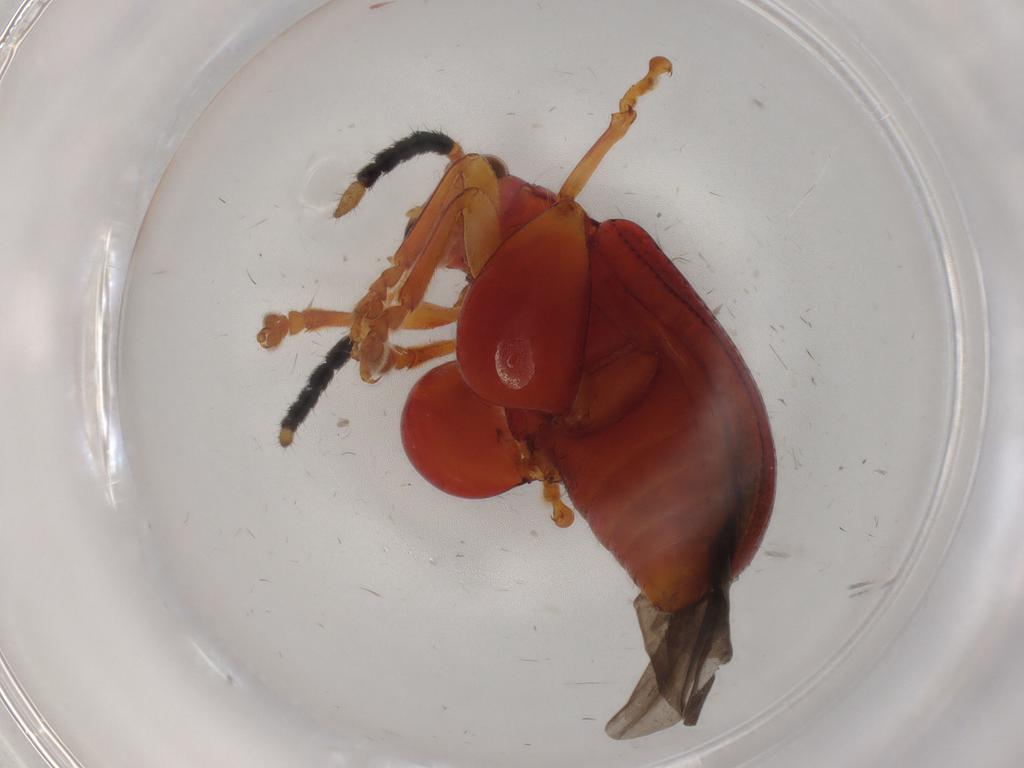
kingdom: Animalia
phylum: Arthropoda
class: Insecta
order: Coleoptera
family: Chrysomelidae
